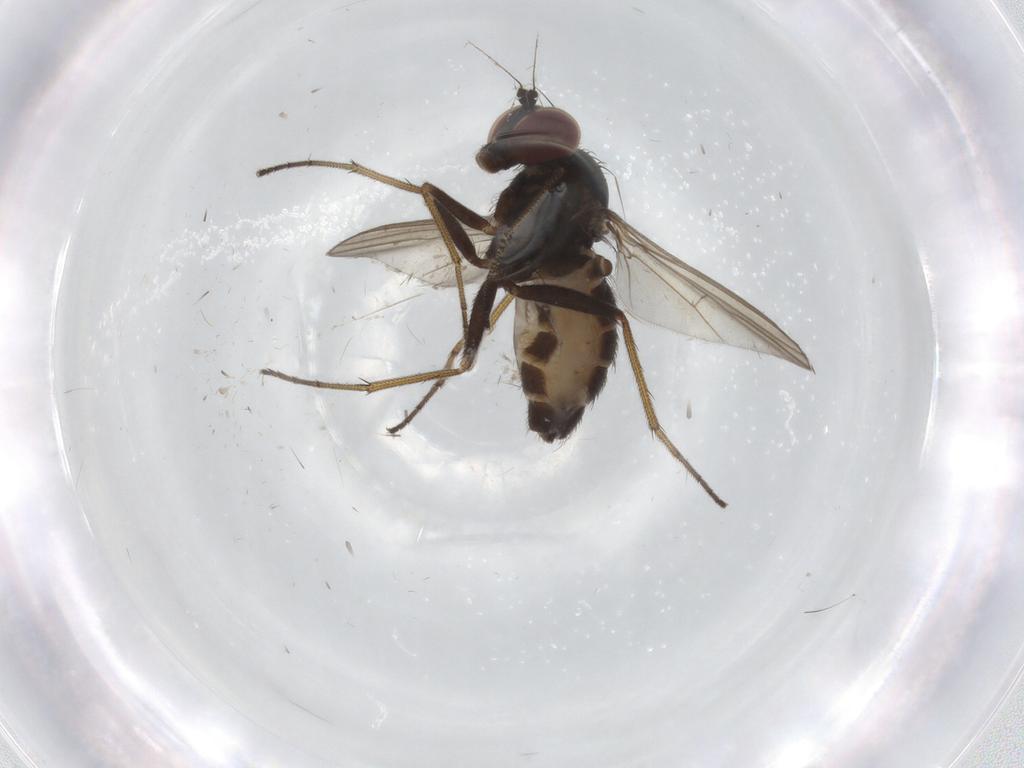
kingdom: Animalia
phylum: Arthropoda
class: Insecta
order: Diptera
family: Dolichopodidae
